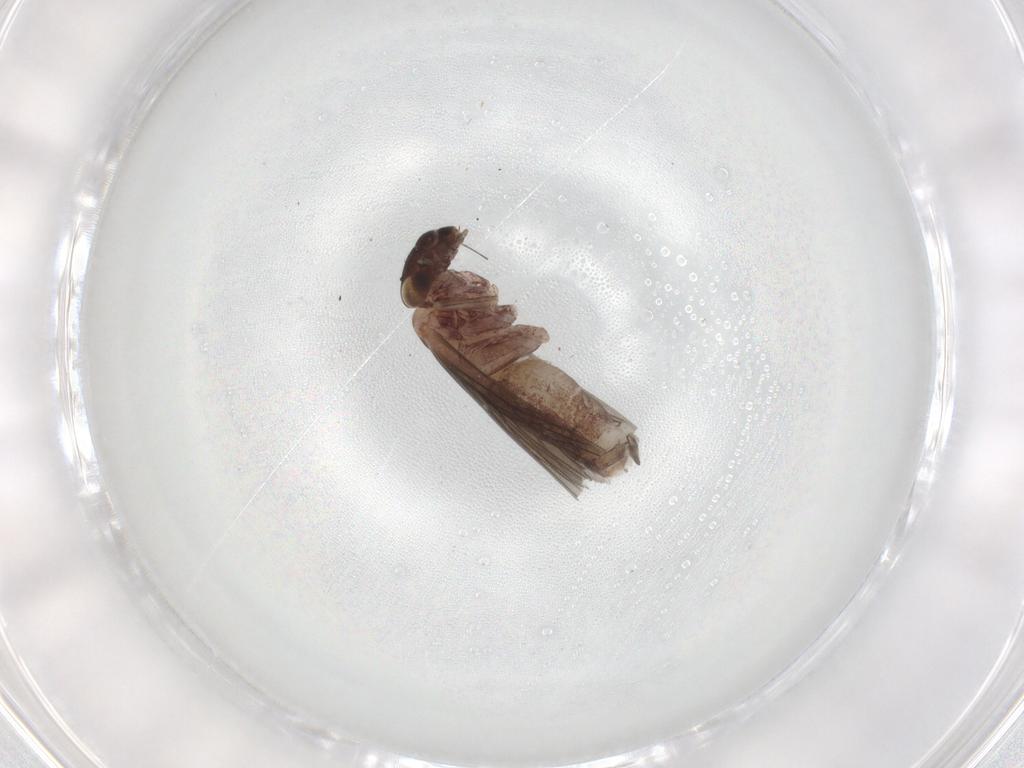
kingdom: Animalia
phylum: Arthropoda
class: Insecta
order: Psocodea
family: Lepidopsocidae
